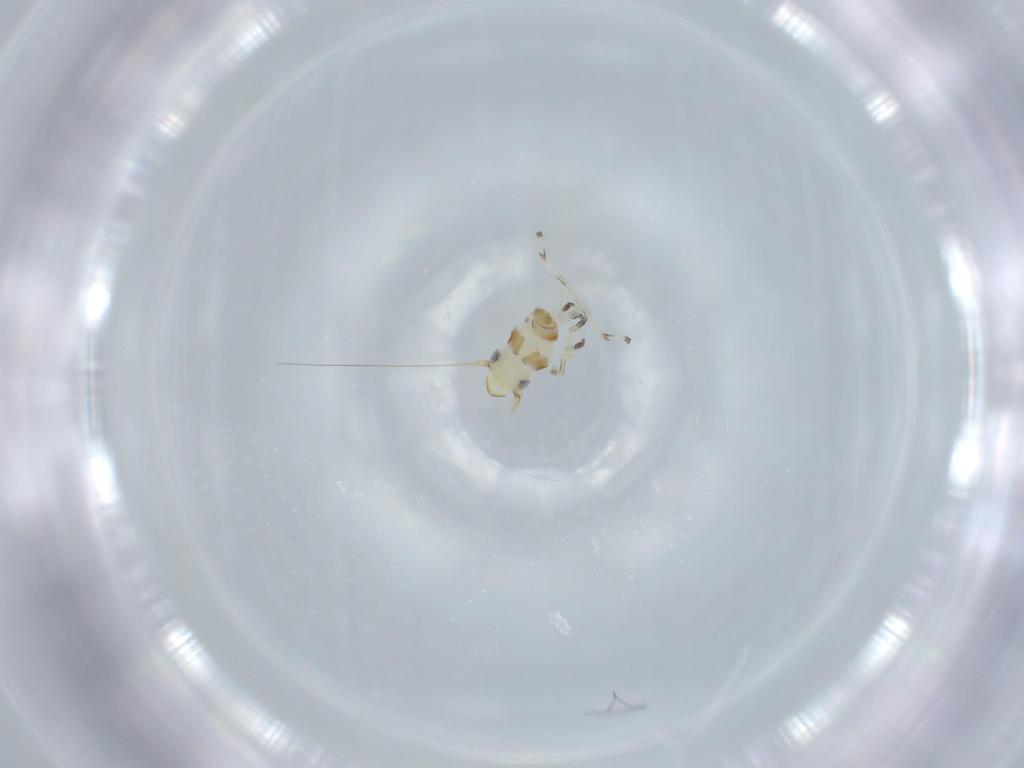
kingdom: Animalia
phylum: Arthropoda
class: Insecta
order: Hemiptera
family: Cicadellidae
